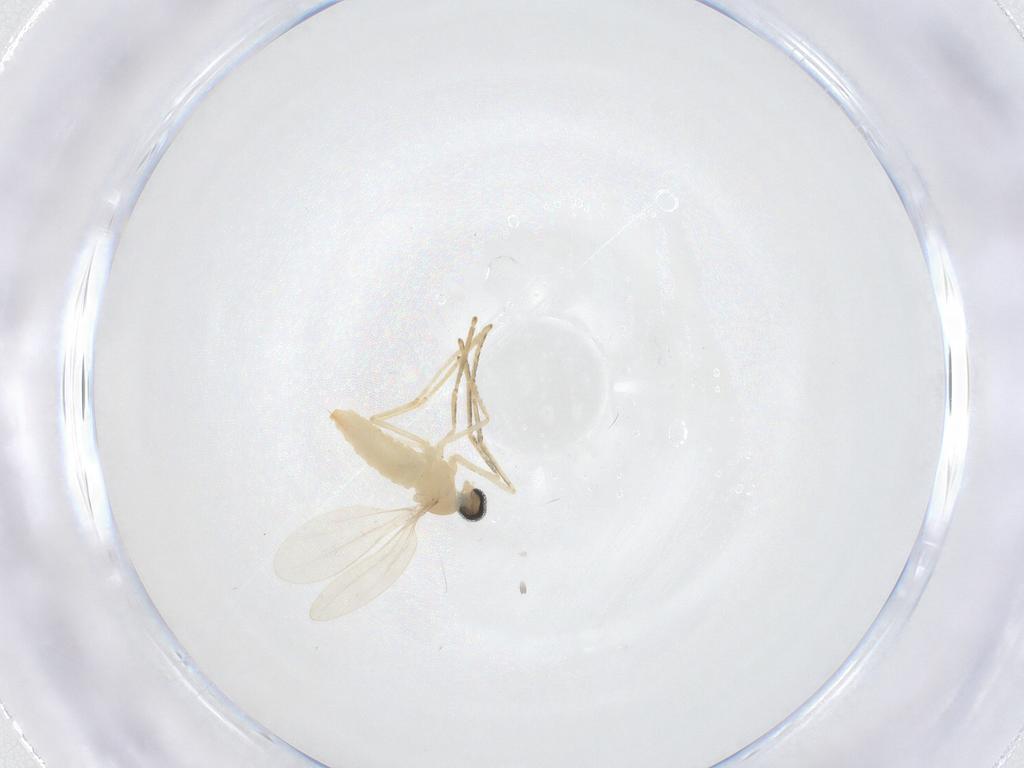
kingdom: Animalia
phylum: Arthropoda
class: Insecta
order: Diptera
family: Cecidomyiidae
